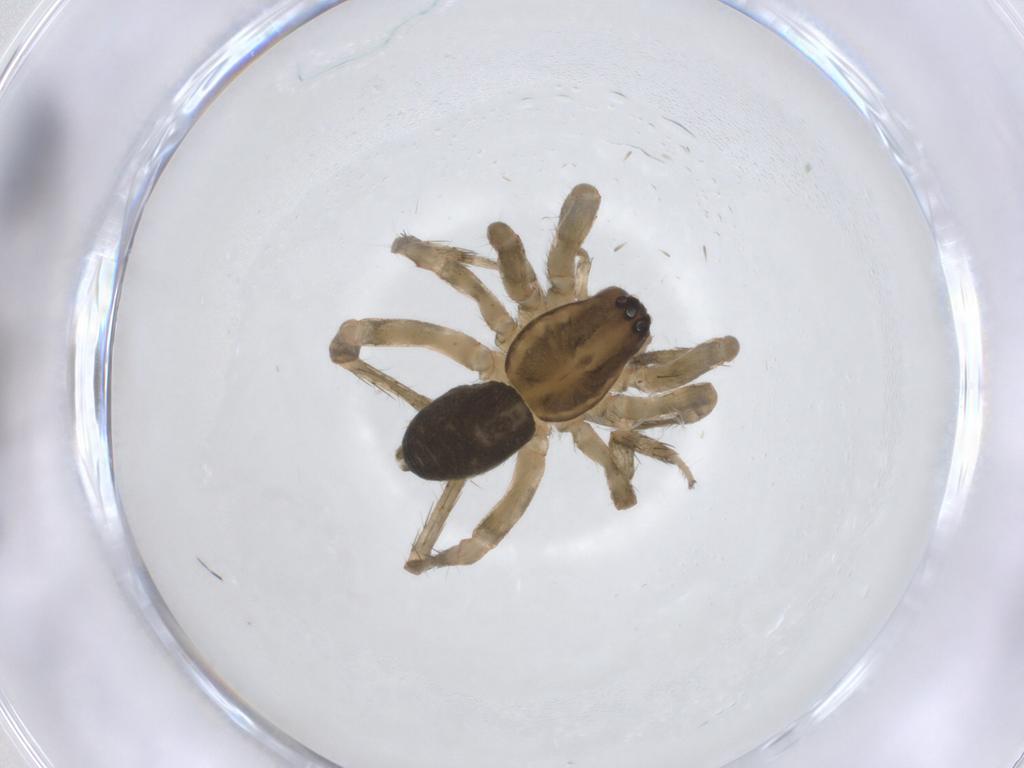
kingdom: Animalia
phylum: Arthropoda
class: Arachnida
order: Araneae
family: Anyphaenidae
